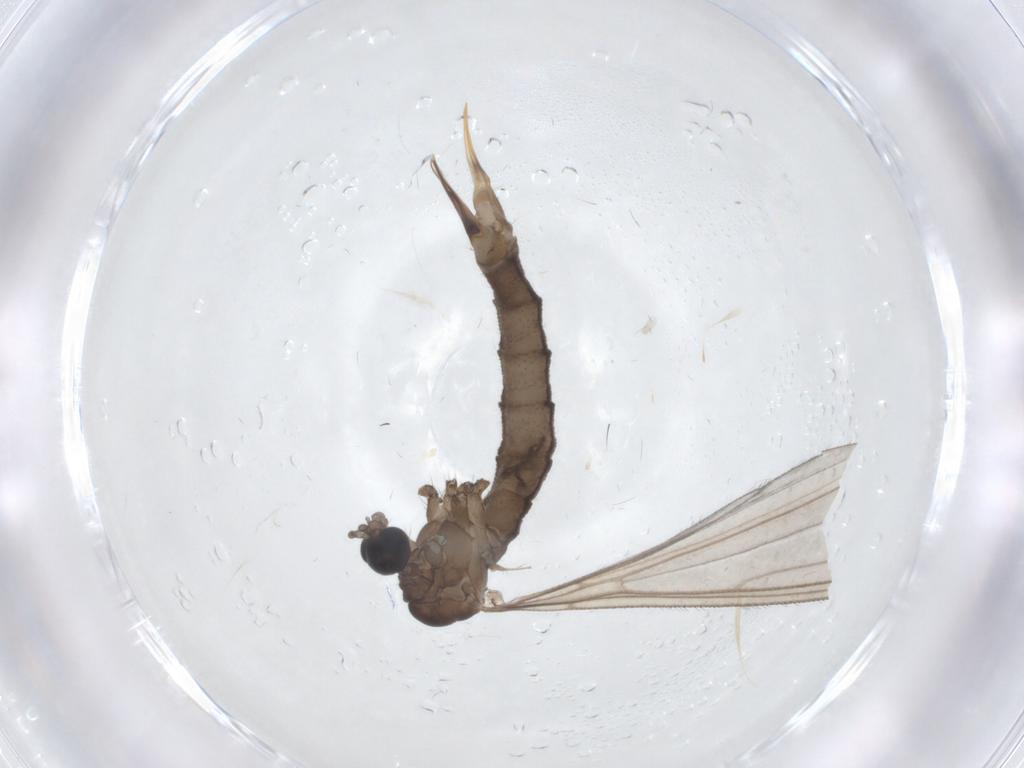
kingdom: Animalia
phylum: Arthropoda
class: Insecta
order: Diptera
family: Limoniidae
